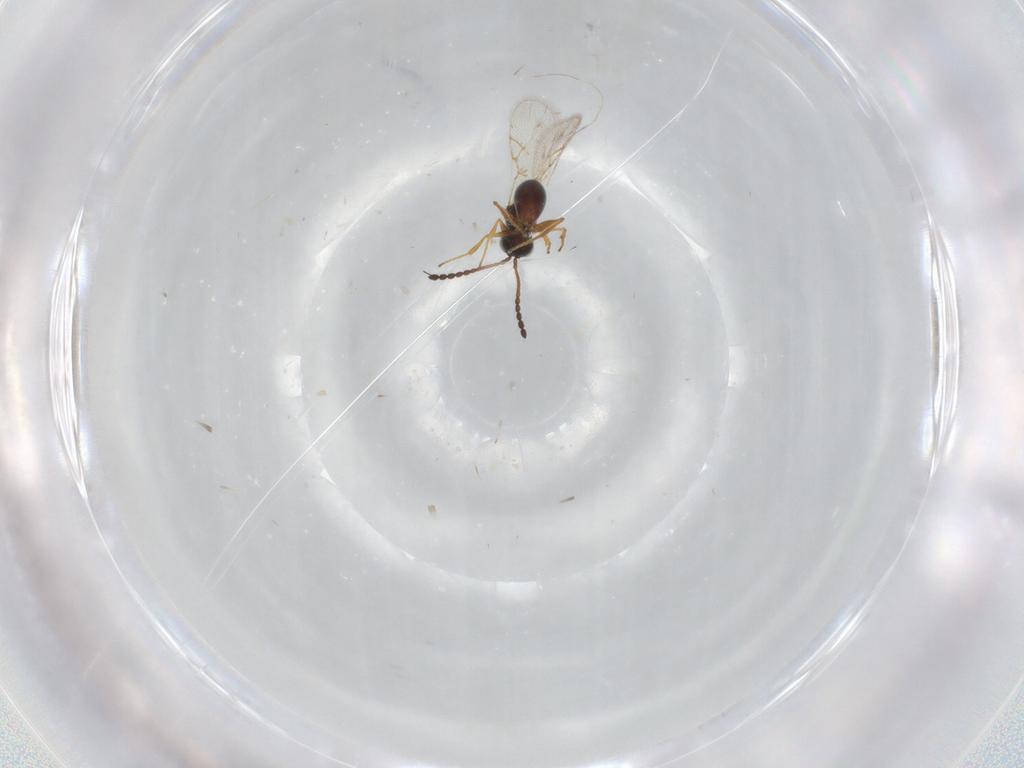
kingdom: Animalia
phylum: Arthropoda
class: Insecta
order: Hymenoptera
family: Figitidae
